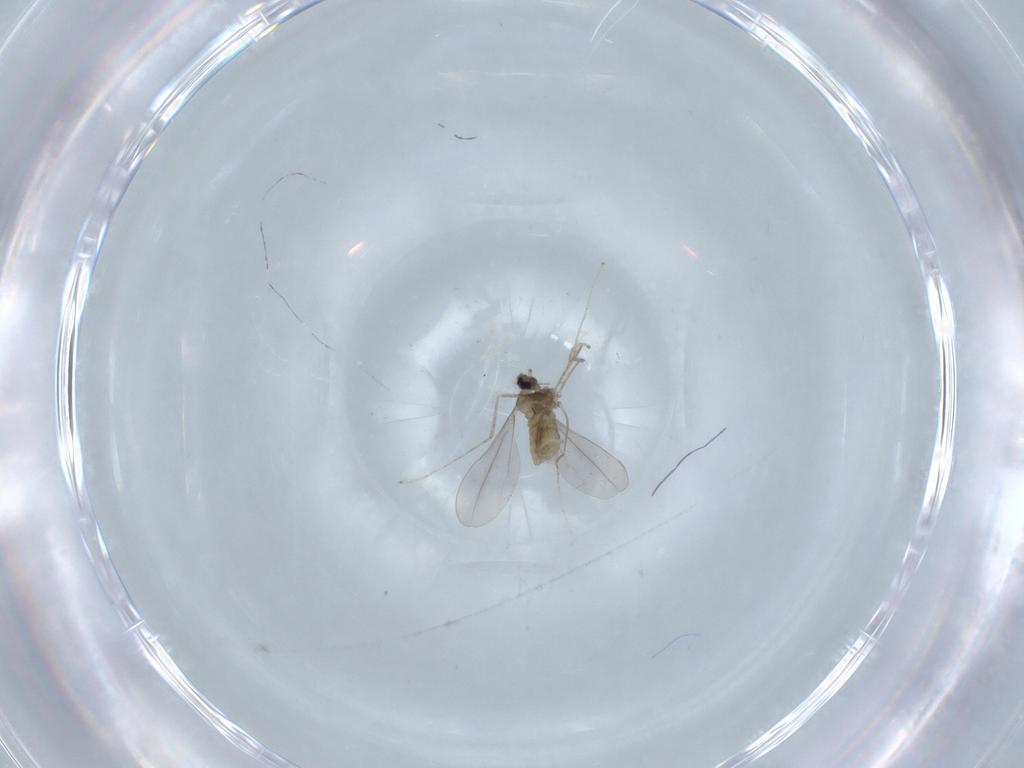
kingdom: Animalia
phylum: Arthropoda
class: Insecta
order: Diptera
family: Cecidomyiidae
